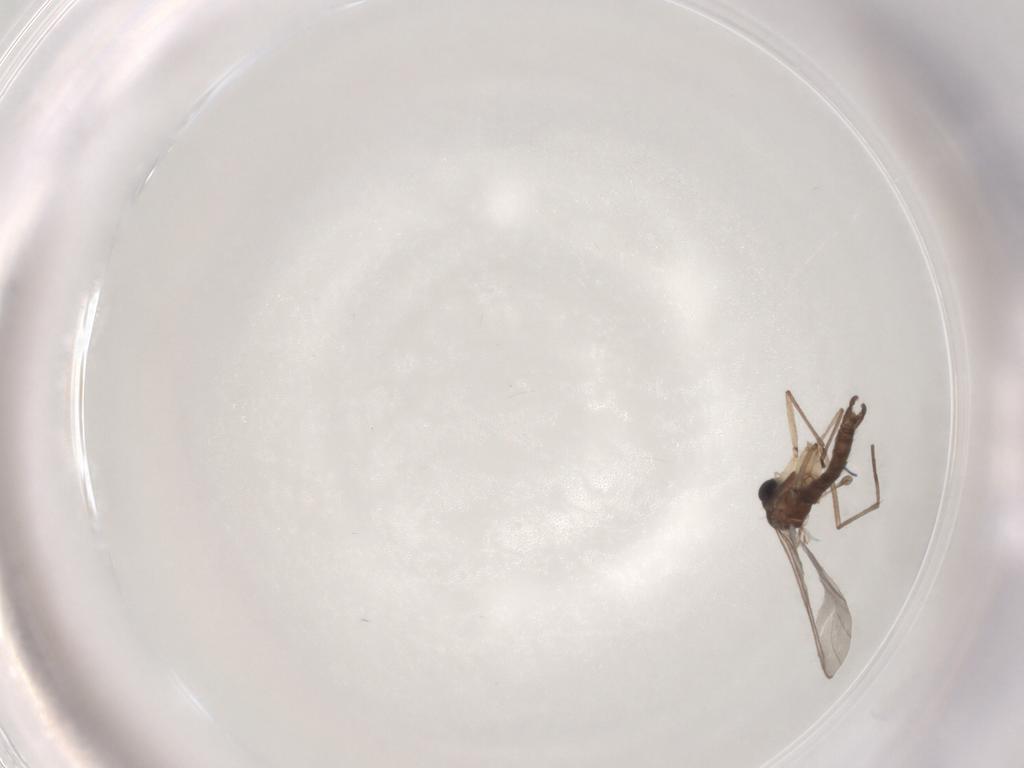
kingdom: Animalia
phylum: Arthropoda
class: Insecta
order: Diptera
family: Sciaridae
